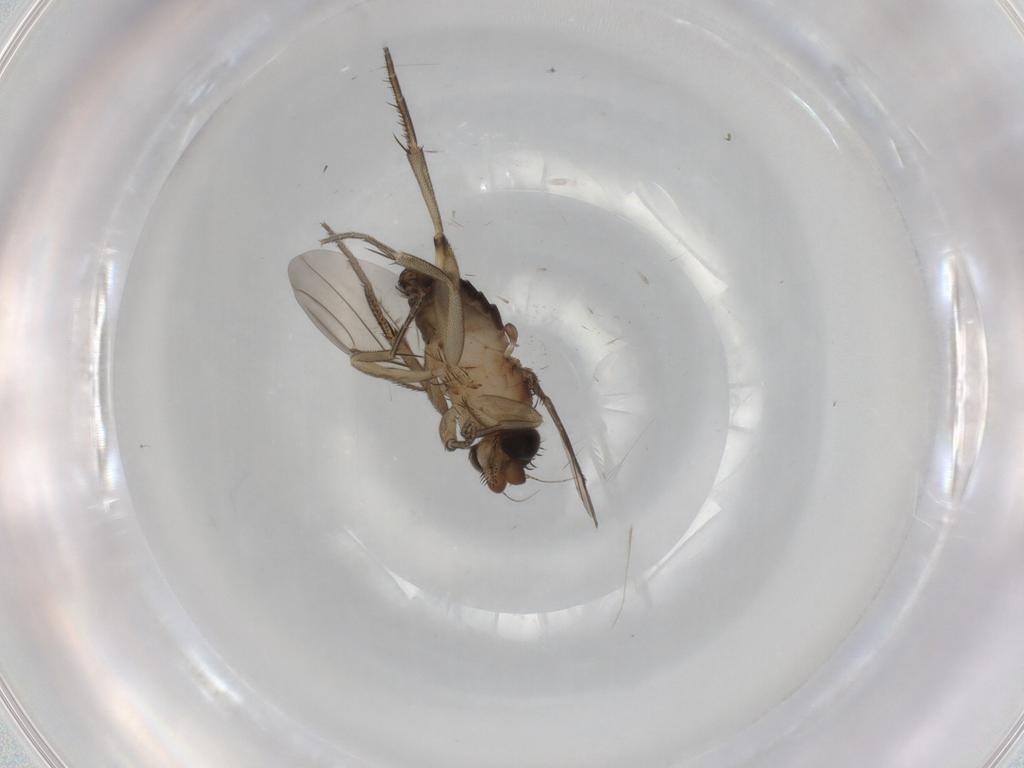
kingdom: Animalia
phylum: Arthropoda
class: Insecta
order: Diptera
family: Phoridae
